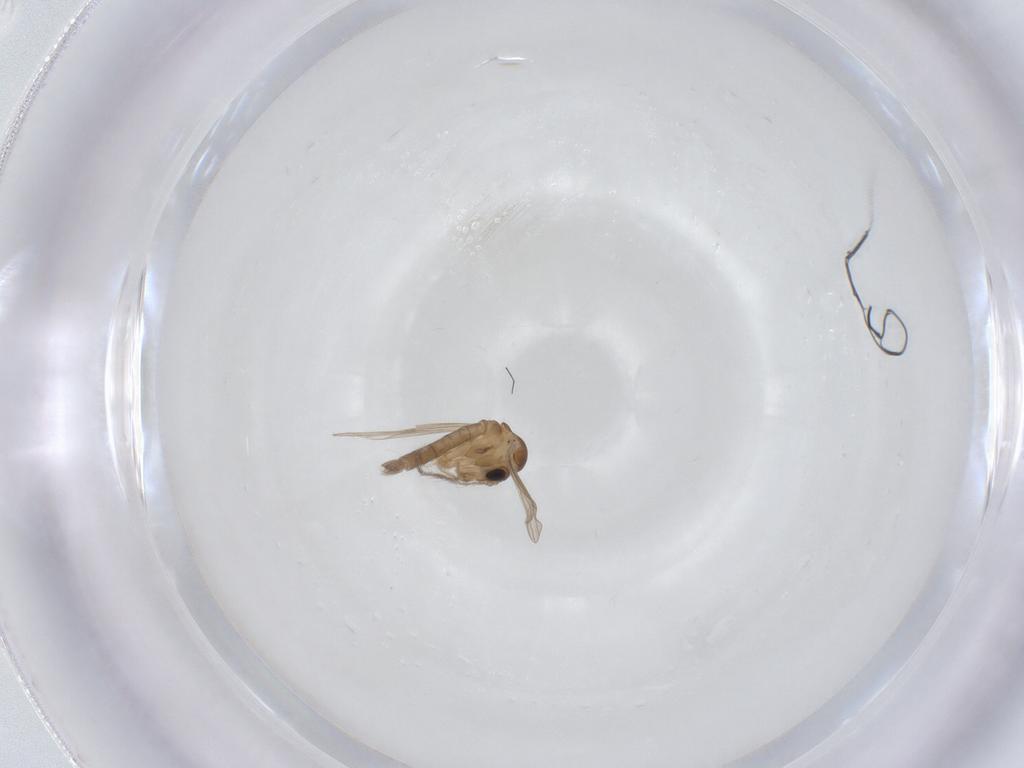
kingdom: Animalia
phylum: Arthropoda
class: Insecta
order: Diptera
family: Psychodidae
